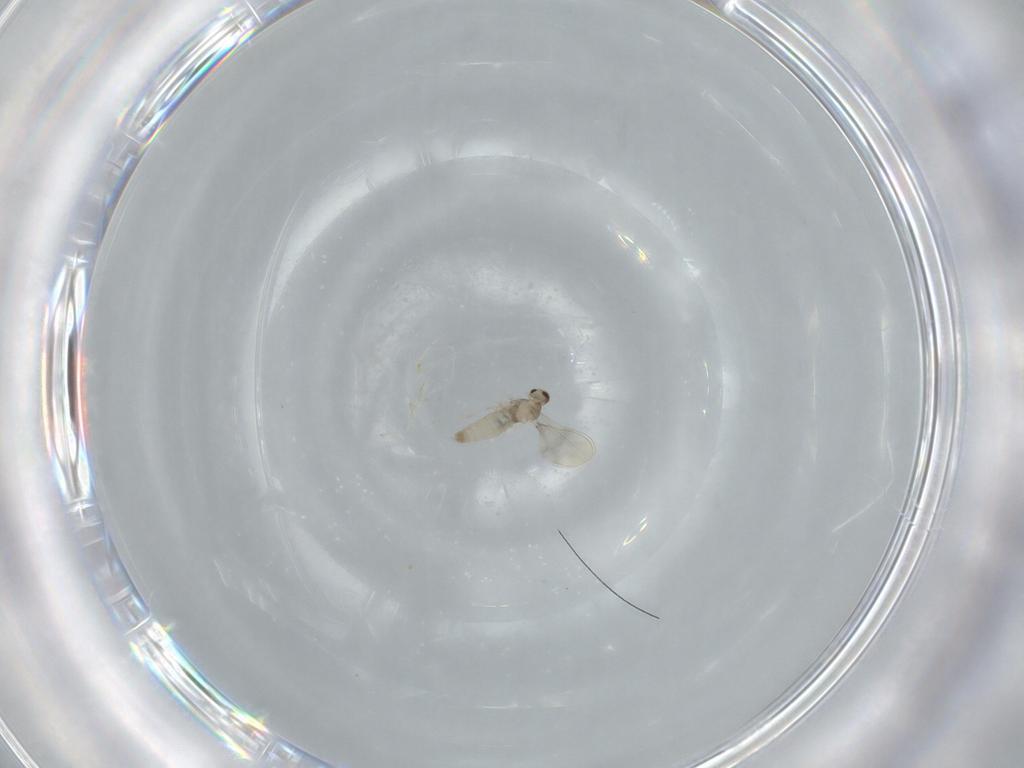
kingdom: Animalia
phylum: Arthropoda
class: Insecta
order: Diptera
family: Cecidomyiidae
